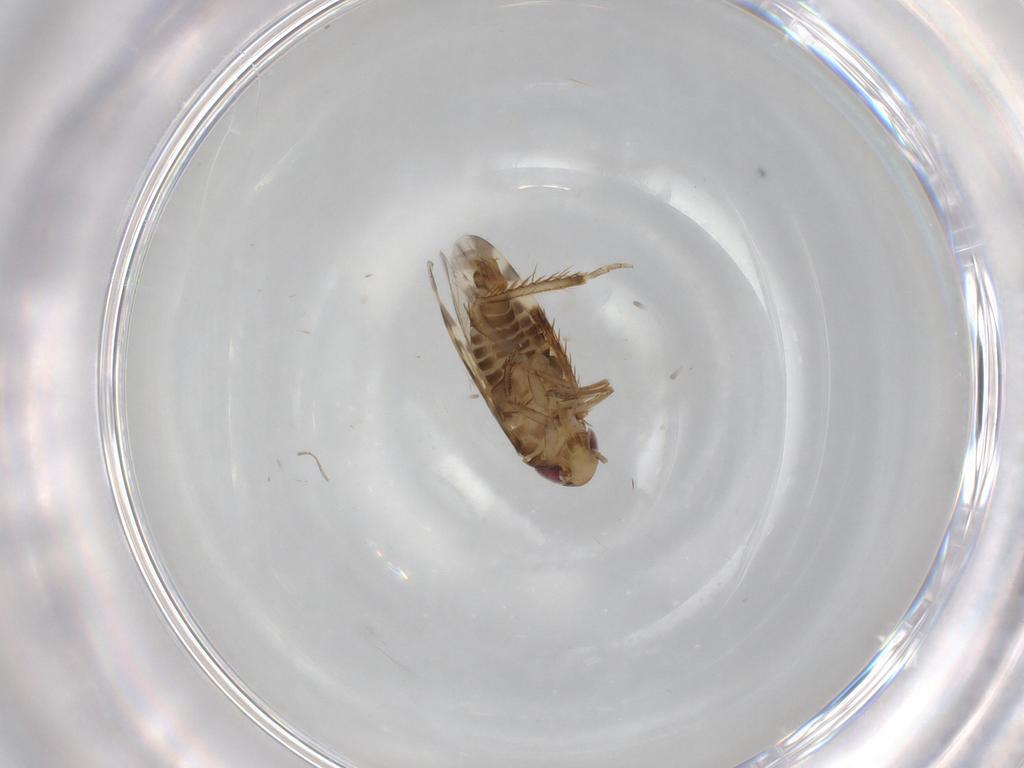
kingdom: Animalia
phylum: Arthropoda
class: Insecta
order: Hemiptera
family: Cicadellidae
